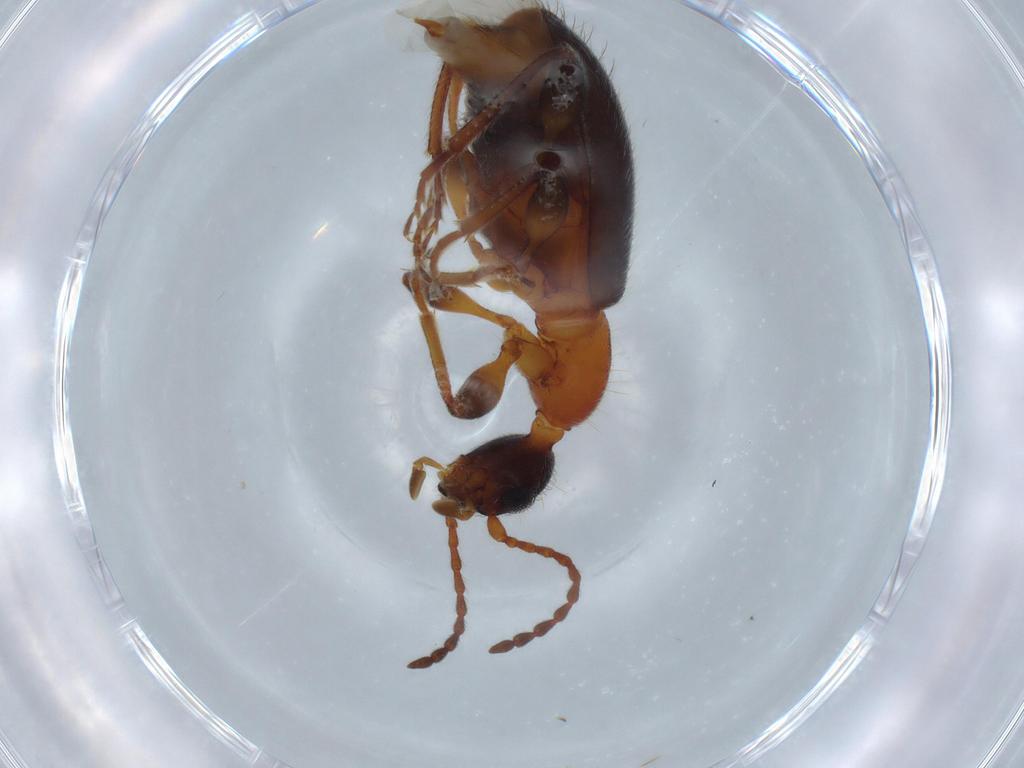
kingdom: Animalia
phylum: Arthropoda
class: Insecta
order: Coleoptera
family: Anthicidae
